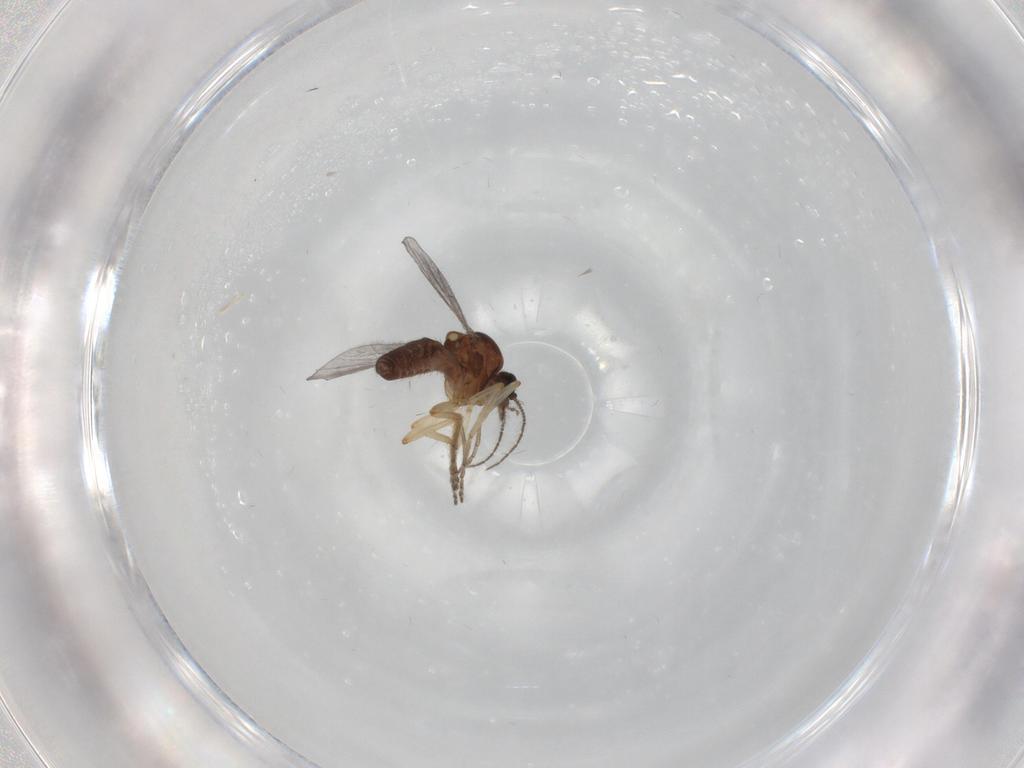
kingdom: Animalia
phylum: Arthropoda
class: Insecta
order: Diptera
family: Ceratopogonidae
